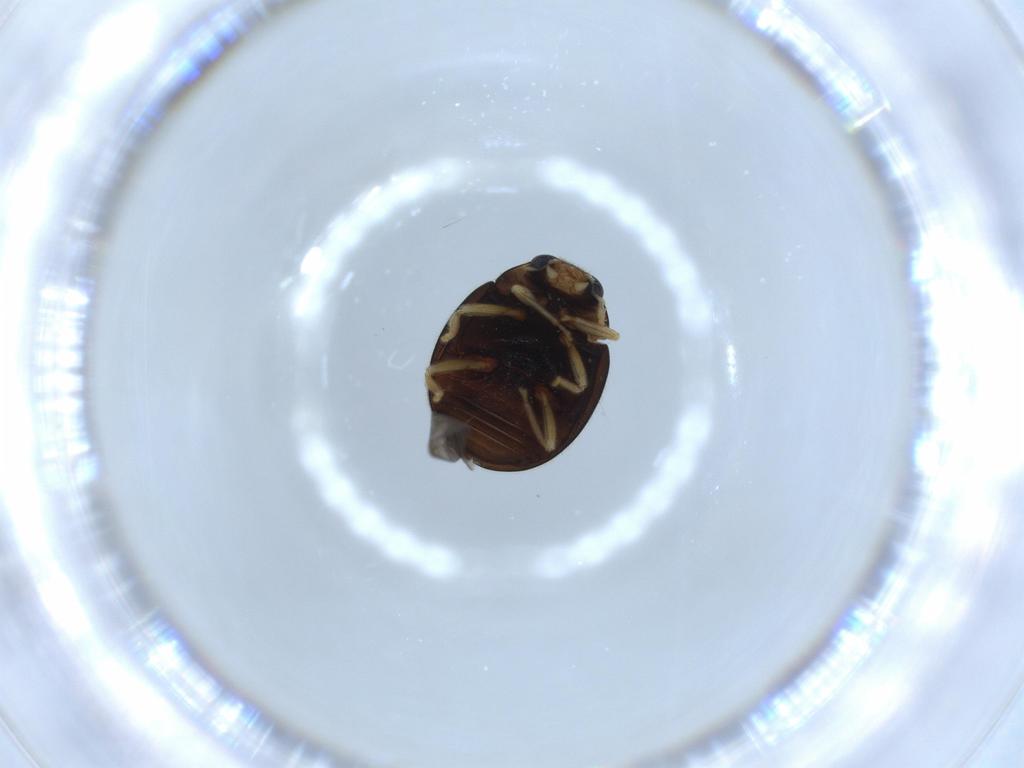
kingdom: Animalia
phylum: Arthropoda
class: Insecta
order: Coleoptera
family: Coccinellidae
